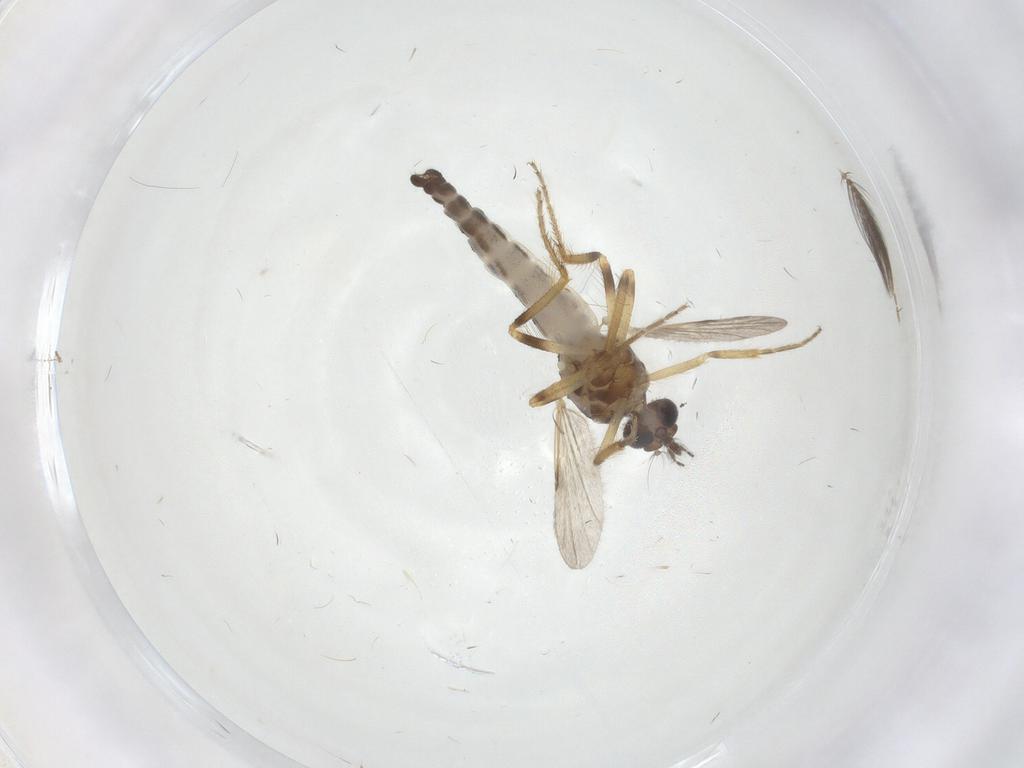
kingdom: Animalia
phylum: Arthropoda
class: Insecta
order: Diptera
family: Ceratopogonidae
